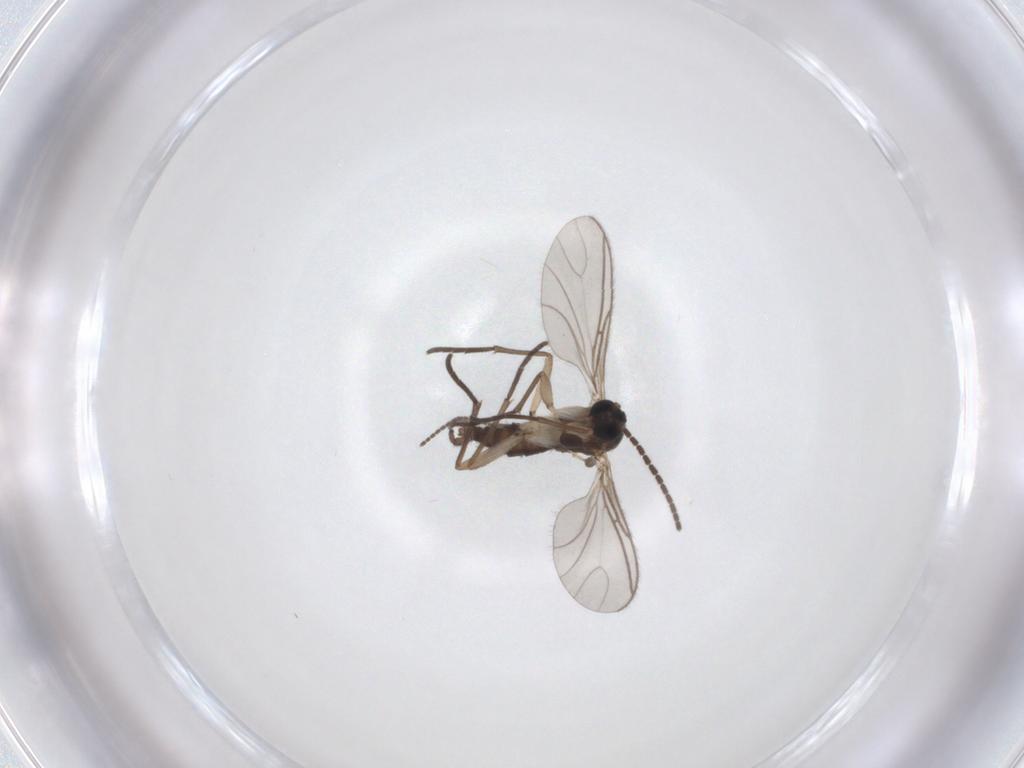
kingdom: Animalia
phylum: Arthropoda
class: Insecta
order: Diptera
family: Sciaridae
